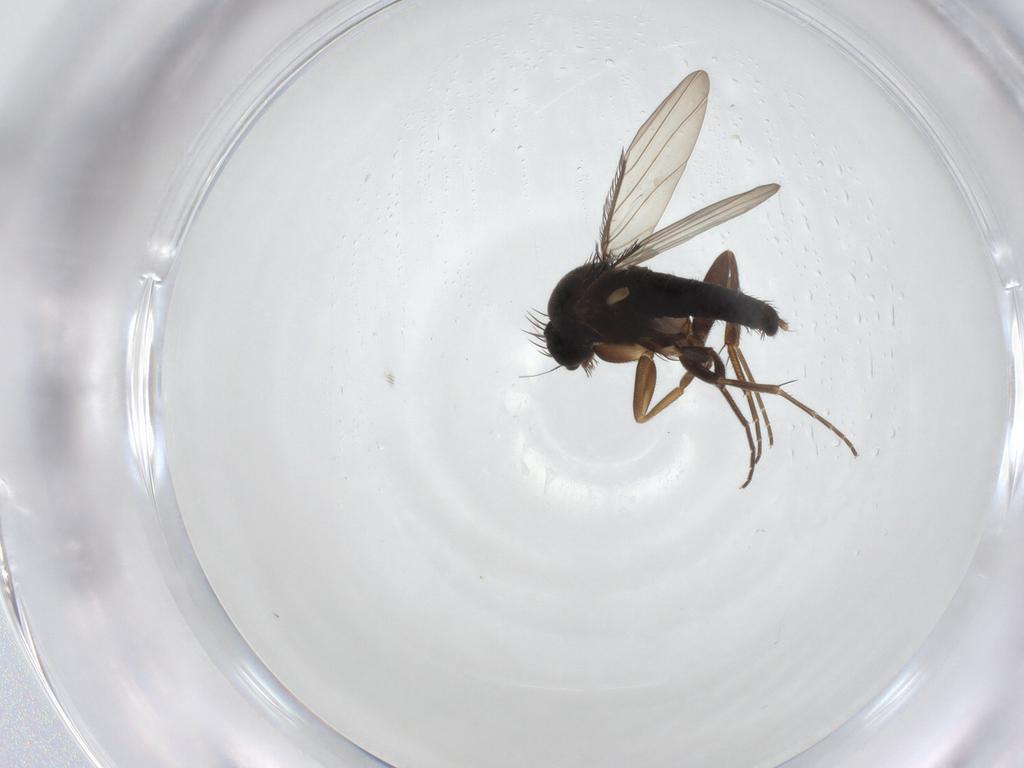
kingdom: Animalia
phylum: Arthropoda
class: Insecta
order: Diptera
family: Phoridae
